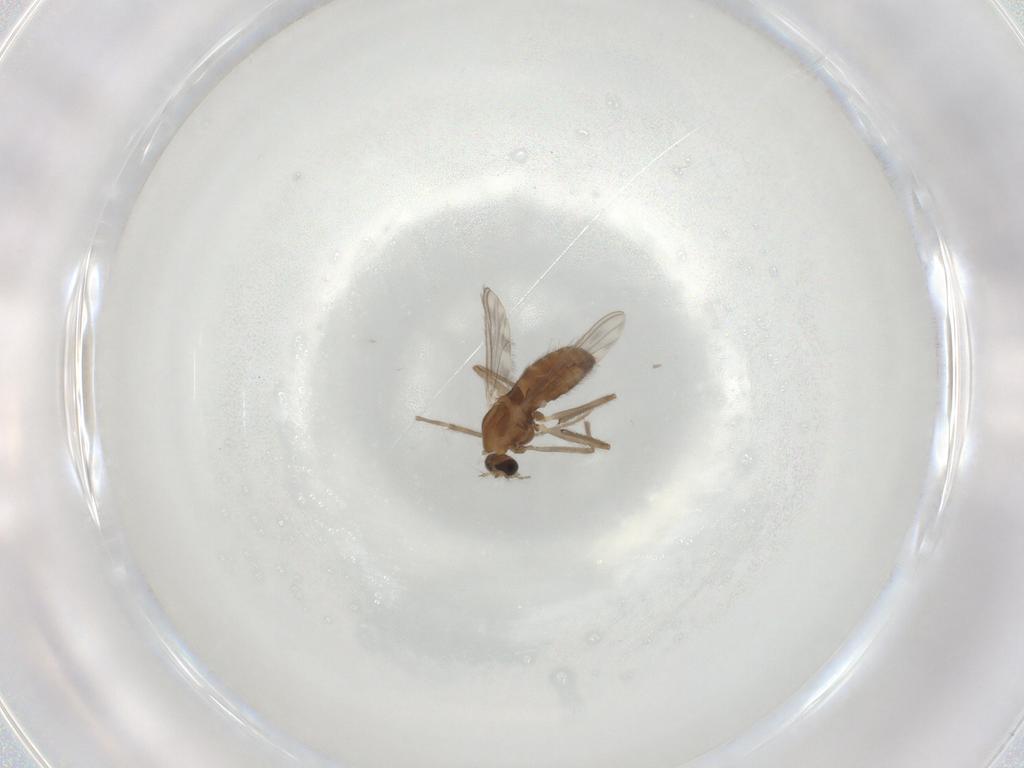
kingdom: Animalia
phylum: Arthropoda
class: Insecta
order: Diptera
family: Chironomidae
